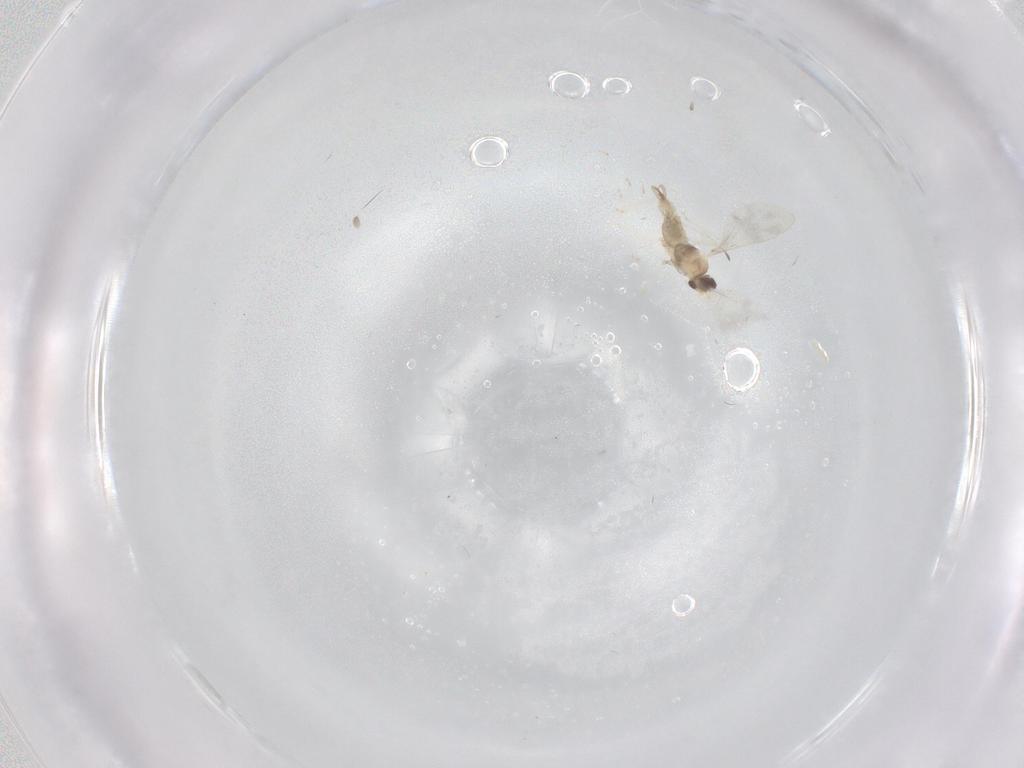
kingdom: Animalia
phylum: Arthropoda
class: Insecta
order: Diptera
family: Cecidomyiidae
